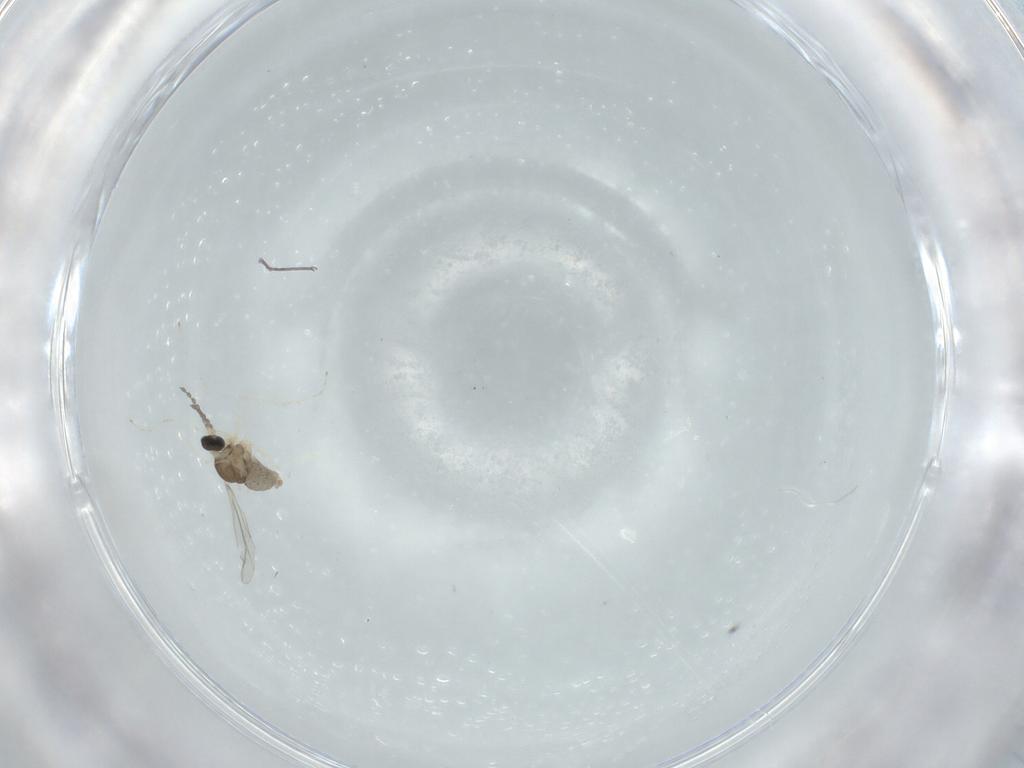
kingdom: Animalia
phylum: Arthropoda
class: Insecta
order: Diptera
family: Cecidomyiidae
